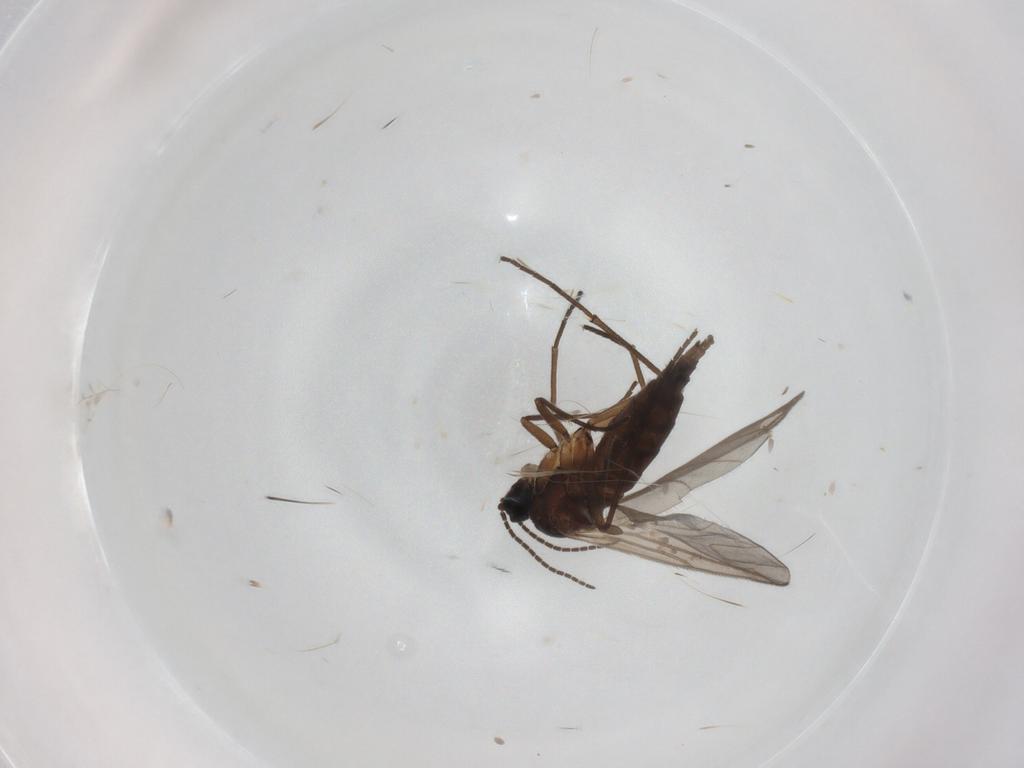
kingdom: Animalia
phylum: Arthropoda
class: Insecta
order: Diptera
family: Sciaridae
